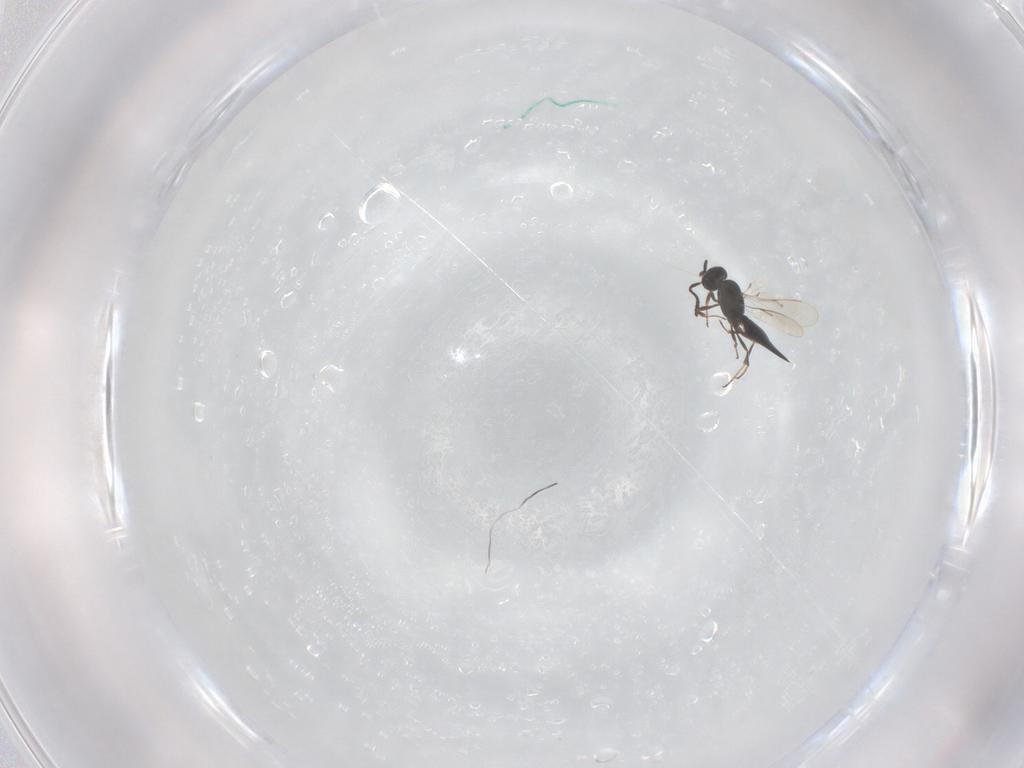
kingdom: Animalia
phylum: Arthropoda
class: Insecta
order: Hymenoptera
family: Scelionidae
